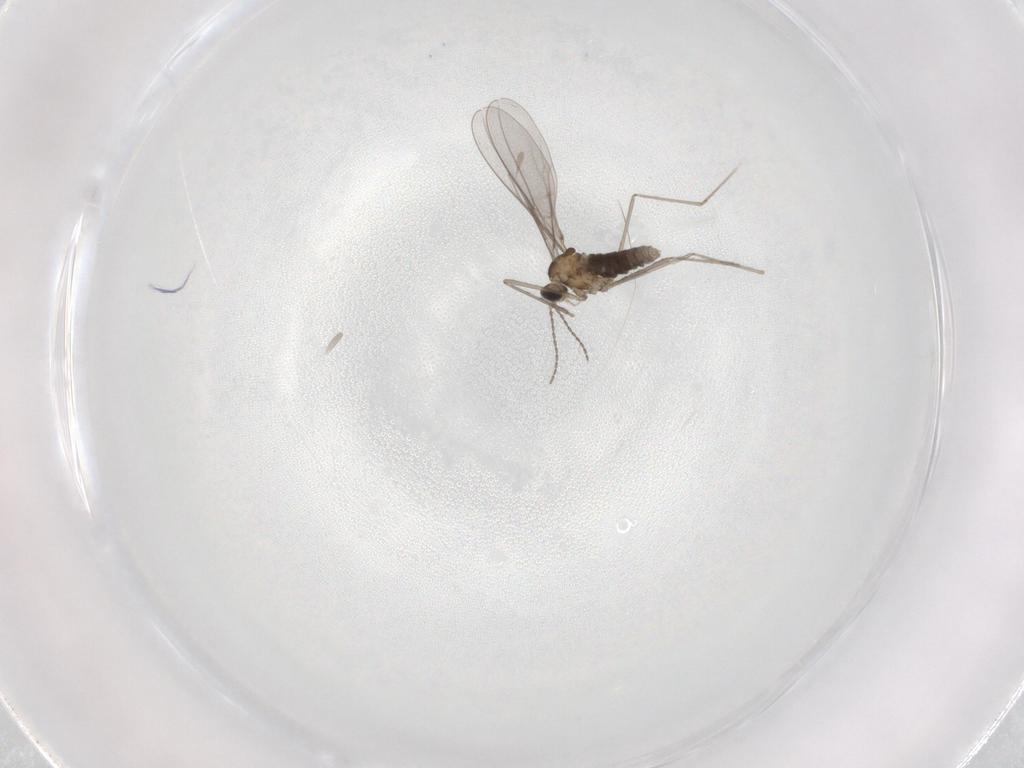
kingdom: Animalia
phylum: Arthropoda
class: Insecta
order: Diptera
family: Cecidomyiidae
